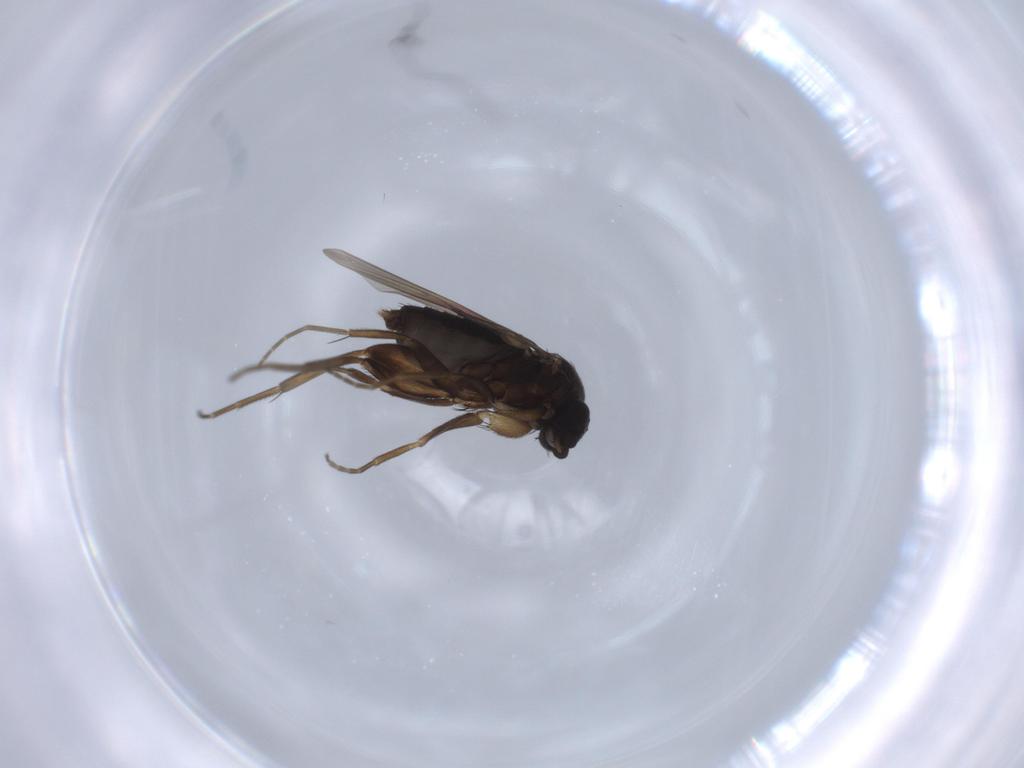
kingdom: Animalia
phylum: Arthropoda
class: Insecta
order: Diptera
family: Phoridae
